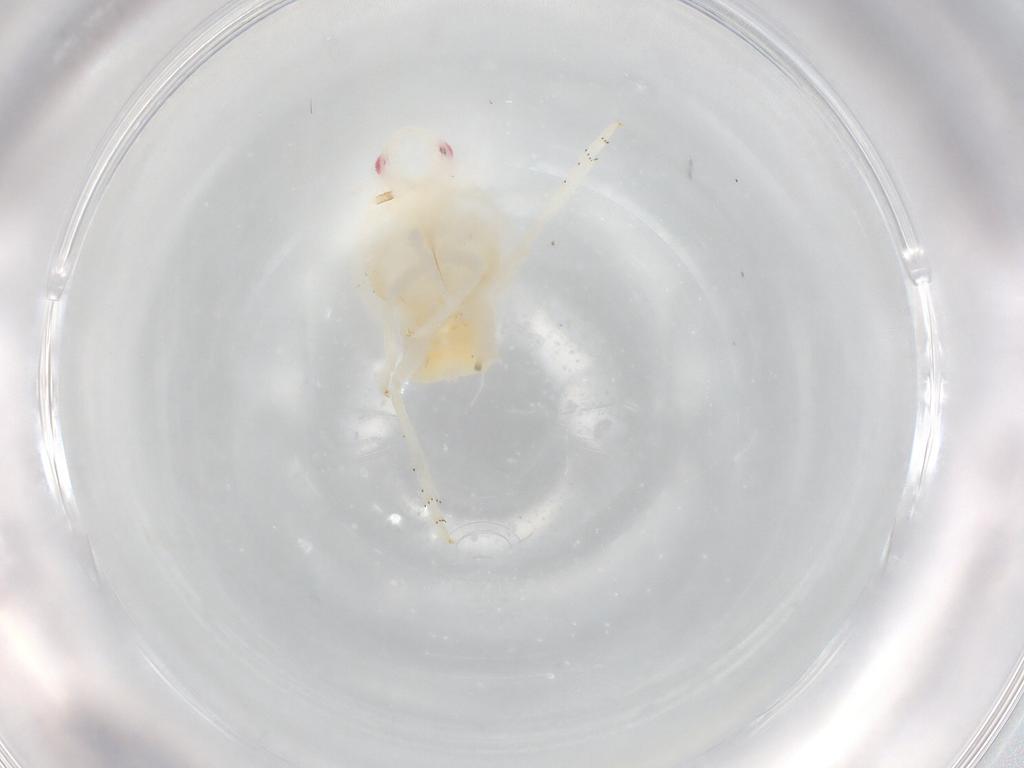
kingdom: Animalia
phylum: Arthropoda
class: Insecta
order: Hemiptera
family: Flatidae
